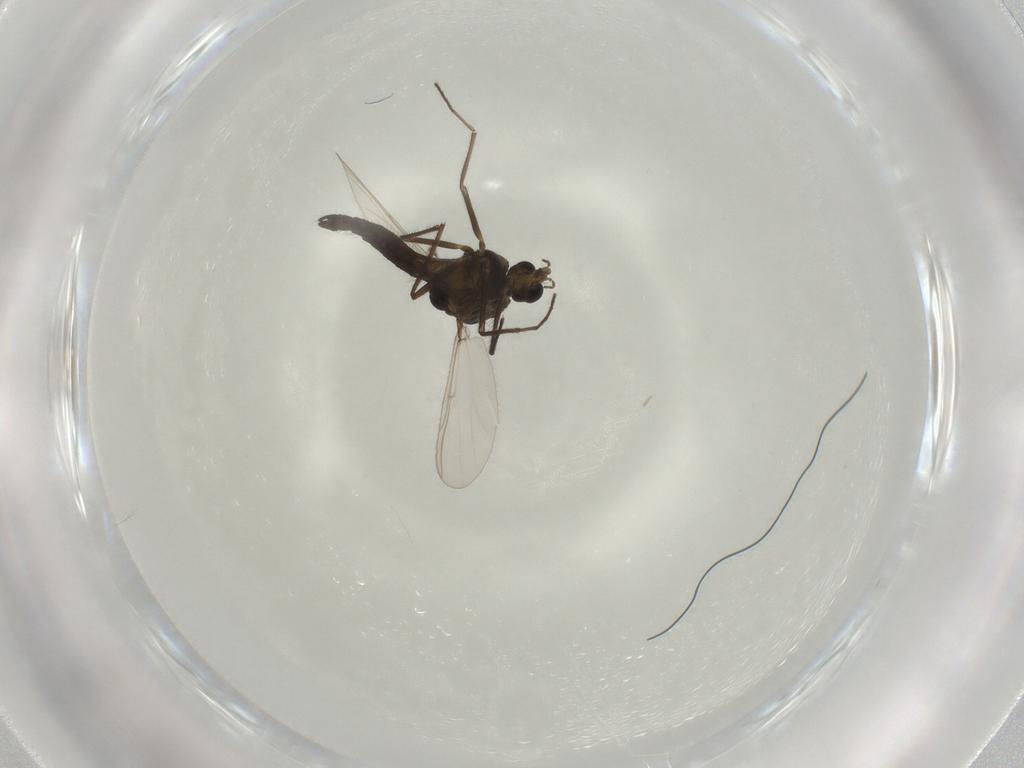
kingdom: Animalia
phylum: Arthropoda
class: Insecta
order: Diptera
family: Chironomidae
